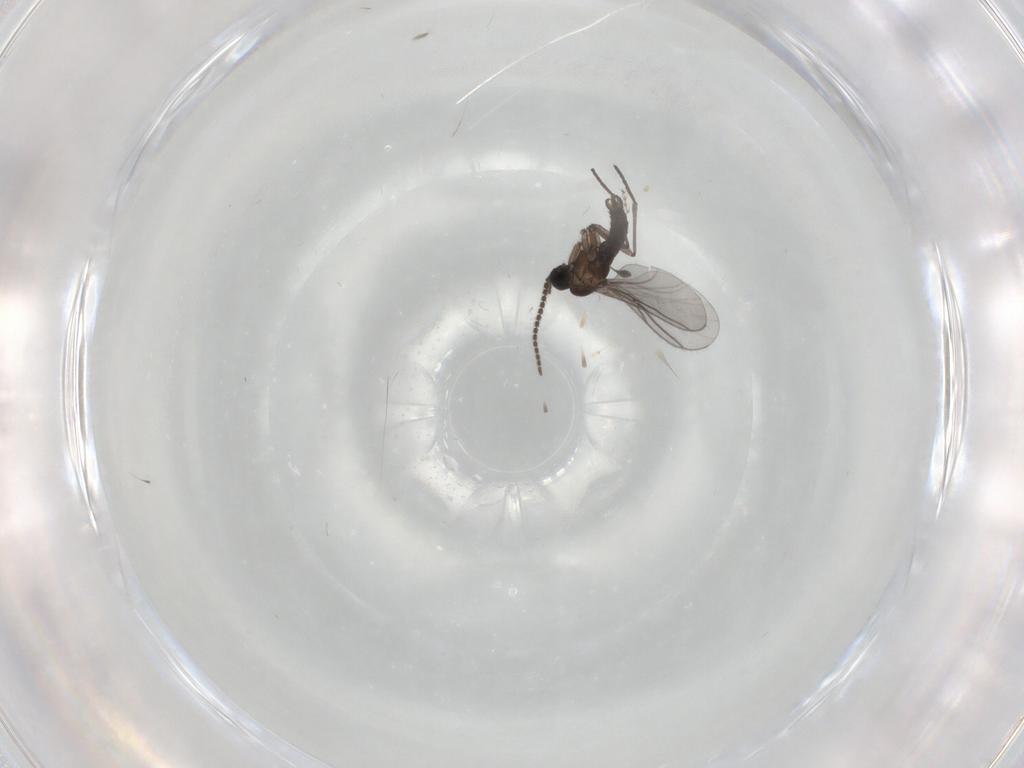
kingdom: Animalia
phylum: Arthropoda
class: Insecta
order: Diptera
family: Cecidomyiidae
